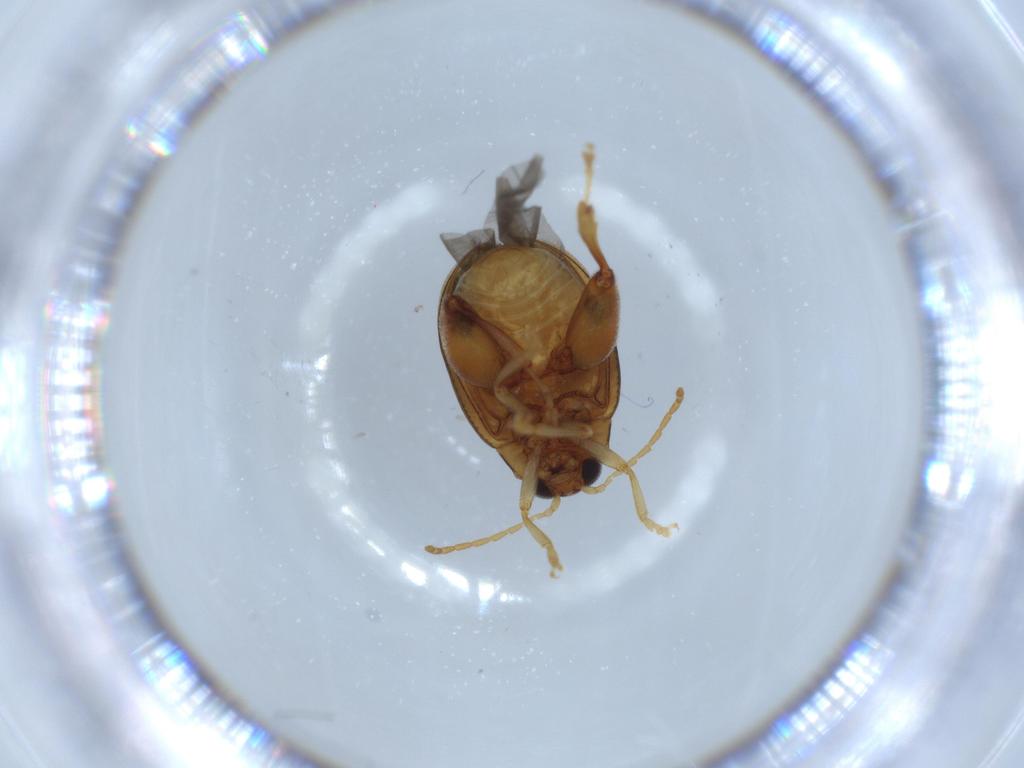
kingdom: Animalia
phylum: Arthropoda
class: Insecta
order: Coleoptera
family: Chrysomelidae
